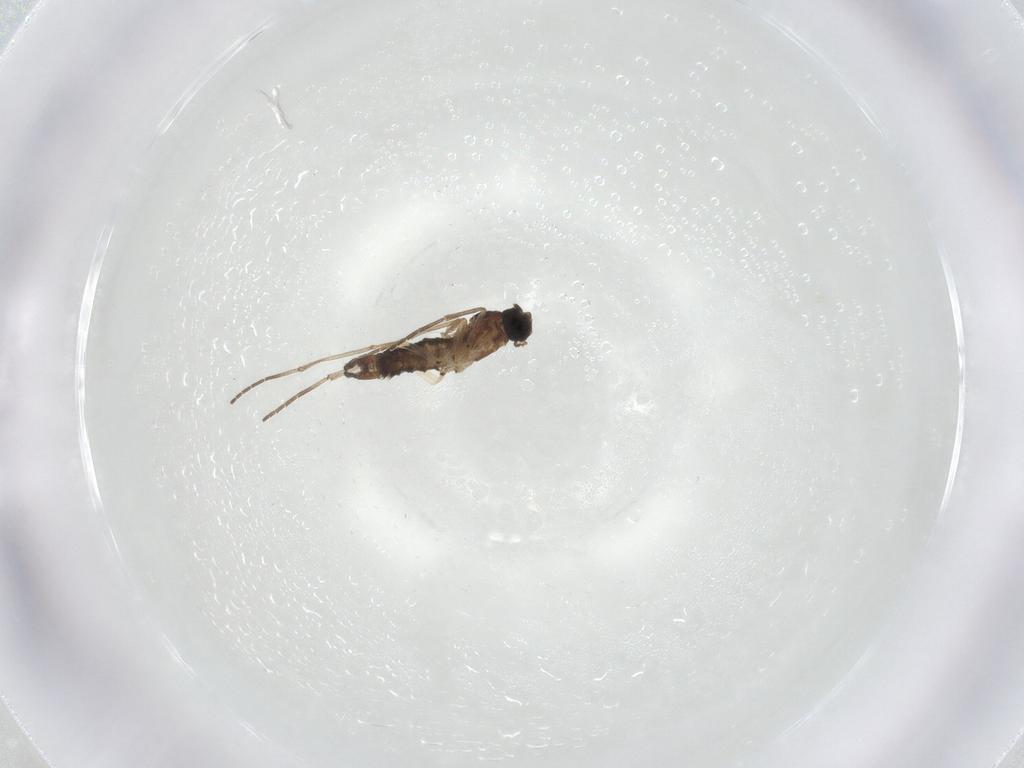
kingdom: Animalia
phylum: Arthropoda
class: Insecta
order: Diptera
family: Sciaridae
